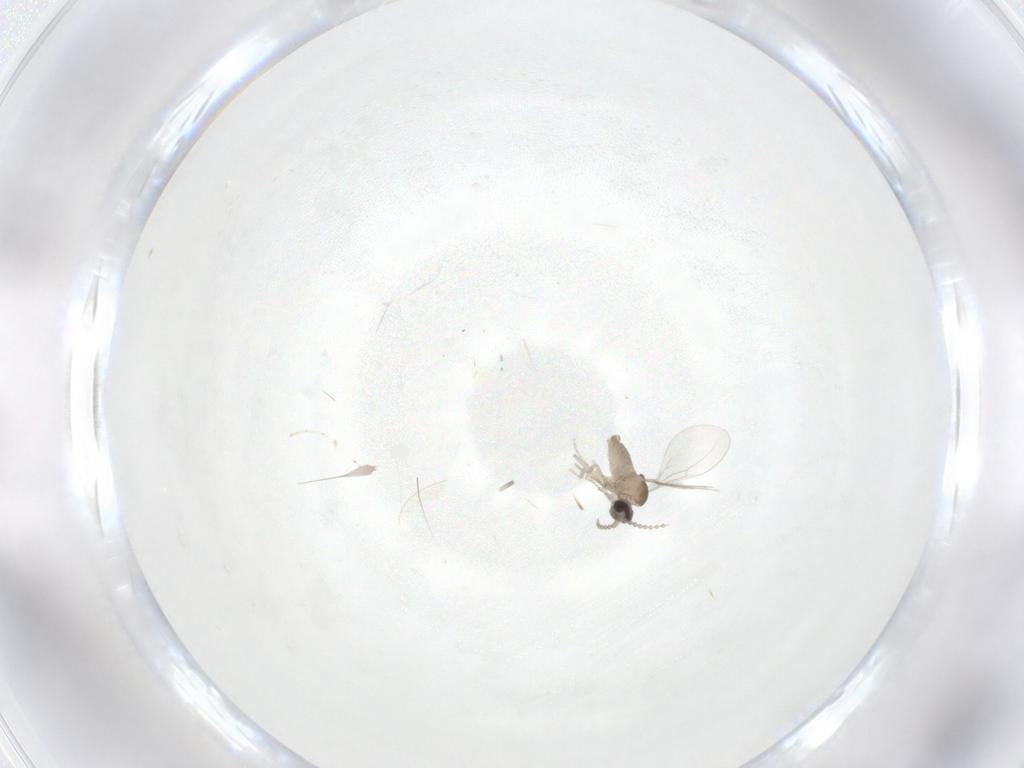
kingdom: Animalia
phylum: Arthropoda
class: Insecta
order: Diptera
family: Cecidomyiidae
